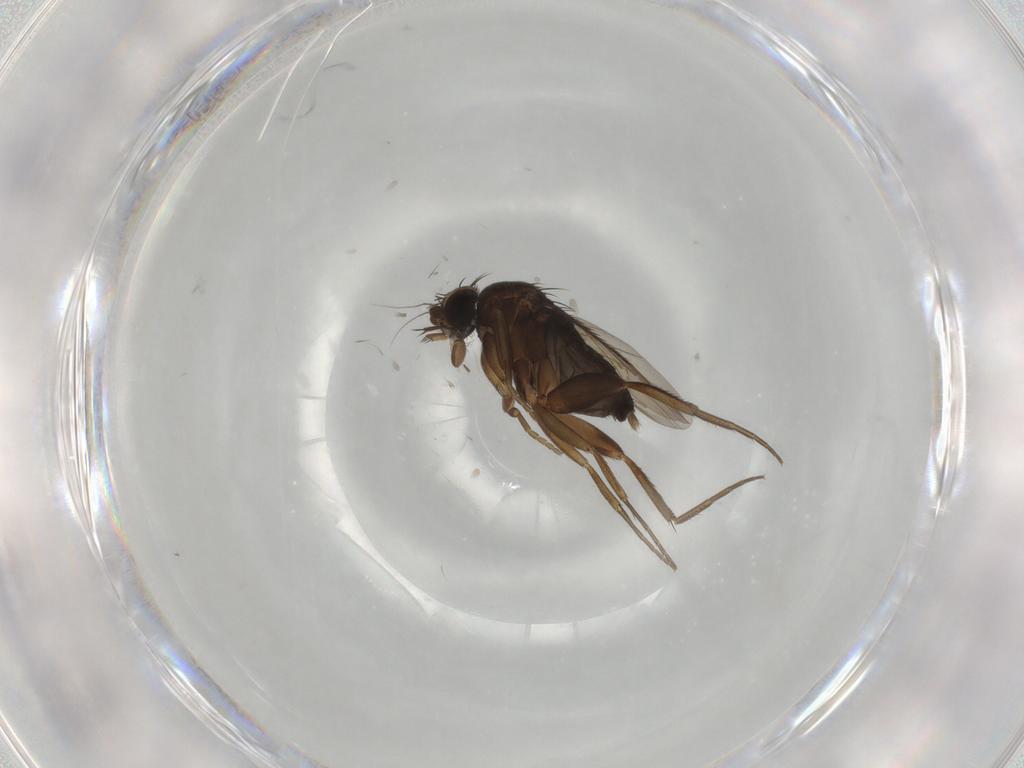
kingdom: Animalia
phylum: Arthropoda
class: Insecta
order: Diptera
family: Phoridae
